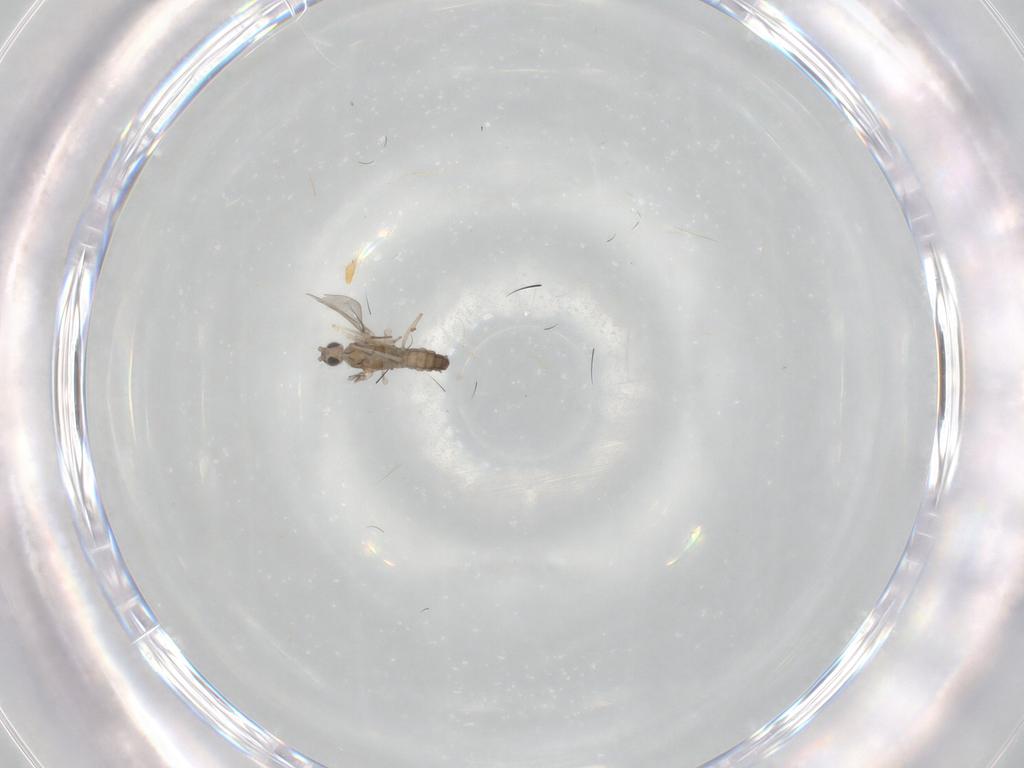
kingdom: Animalia
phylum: Arthropoda
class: Insecta
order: Diptera
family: Cecidomyiidae
